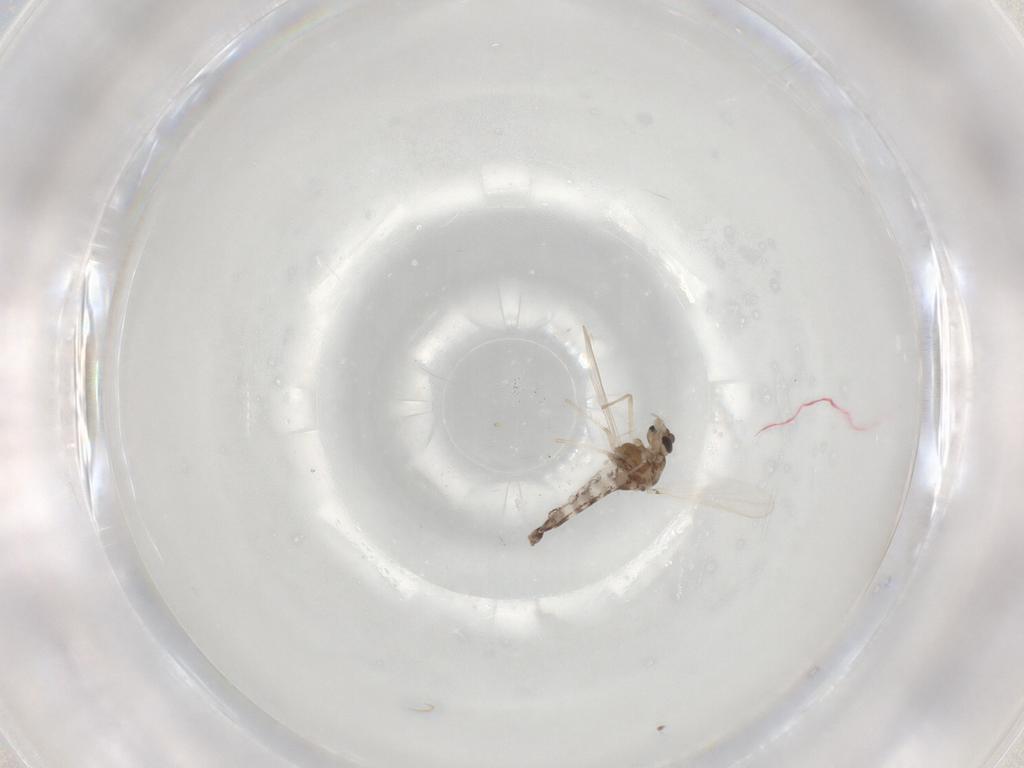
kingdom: Animalia
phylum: Arthropoda
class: Insecta
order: Diptera
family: Chironomidae
